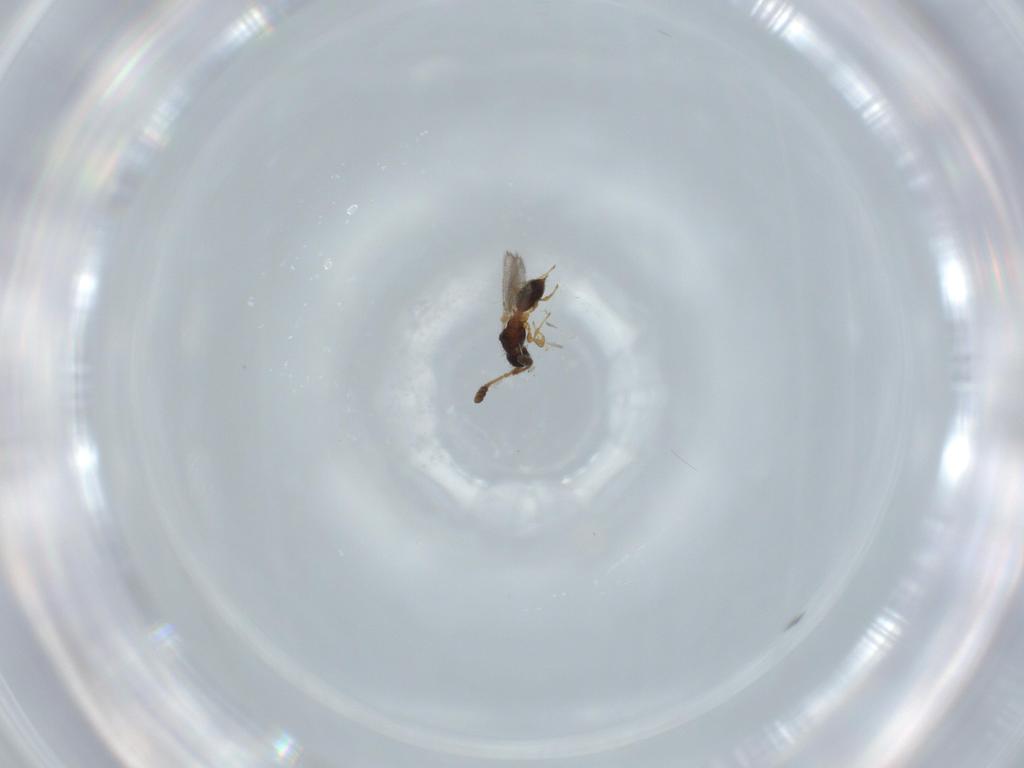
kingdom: Animalia
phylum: Arthropoda
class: Insecta
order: Hymenoptera
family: Diapriidae
